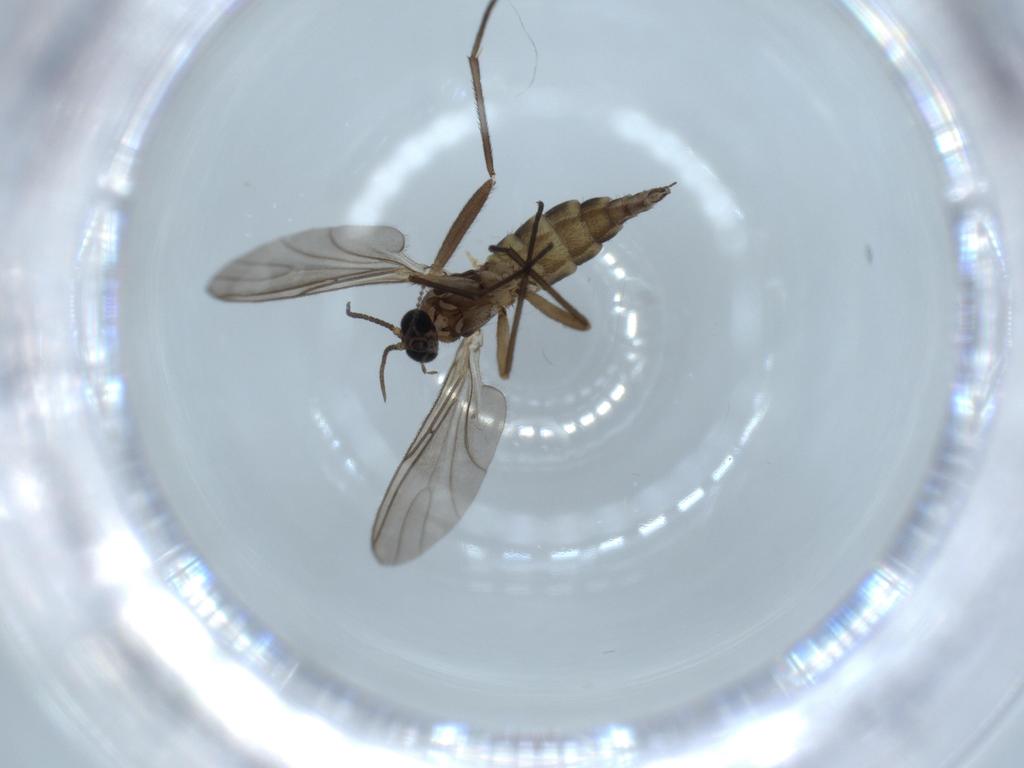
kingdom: Animalia
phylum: Arthropoda
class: Insecta
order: Diptera
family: Sciaridae
